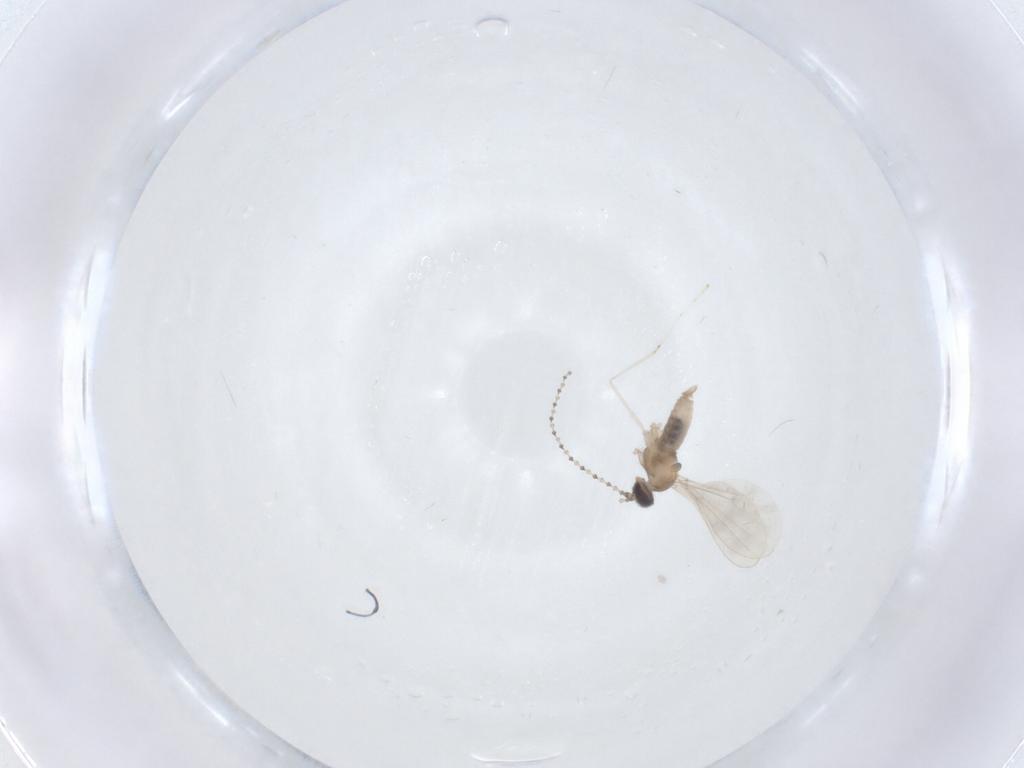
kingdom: Animalia
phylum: Arthropoda
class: Insecta
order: Diptera
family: Cecidomyiidae
